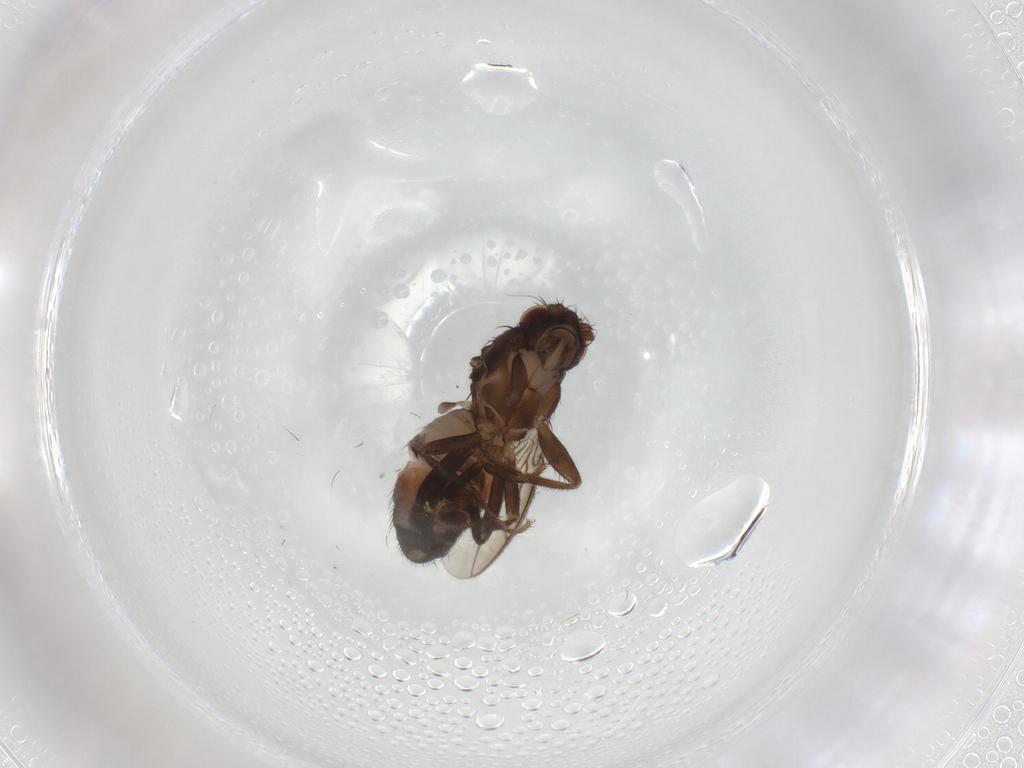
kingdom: Animalia
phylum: Arthropoda
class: Insecta
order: Diptera
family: Sphaeroceridae
